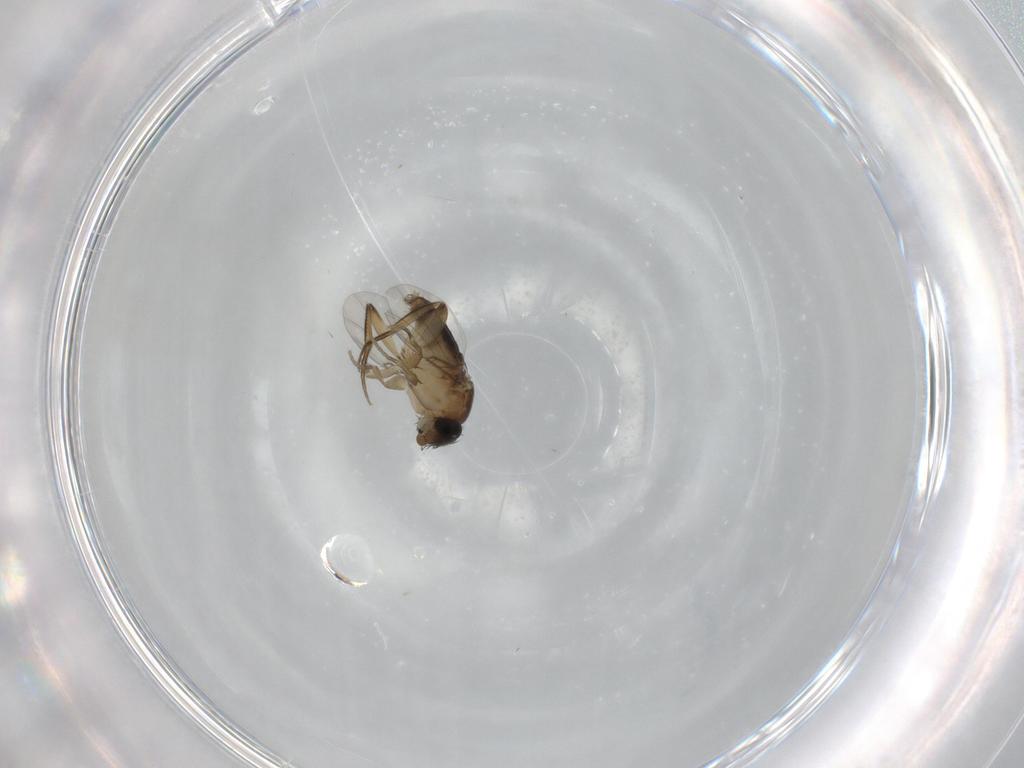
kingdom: Animalia
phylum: Arthropoda
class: Insecta
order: Diptera
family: Phoridae
